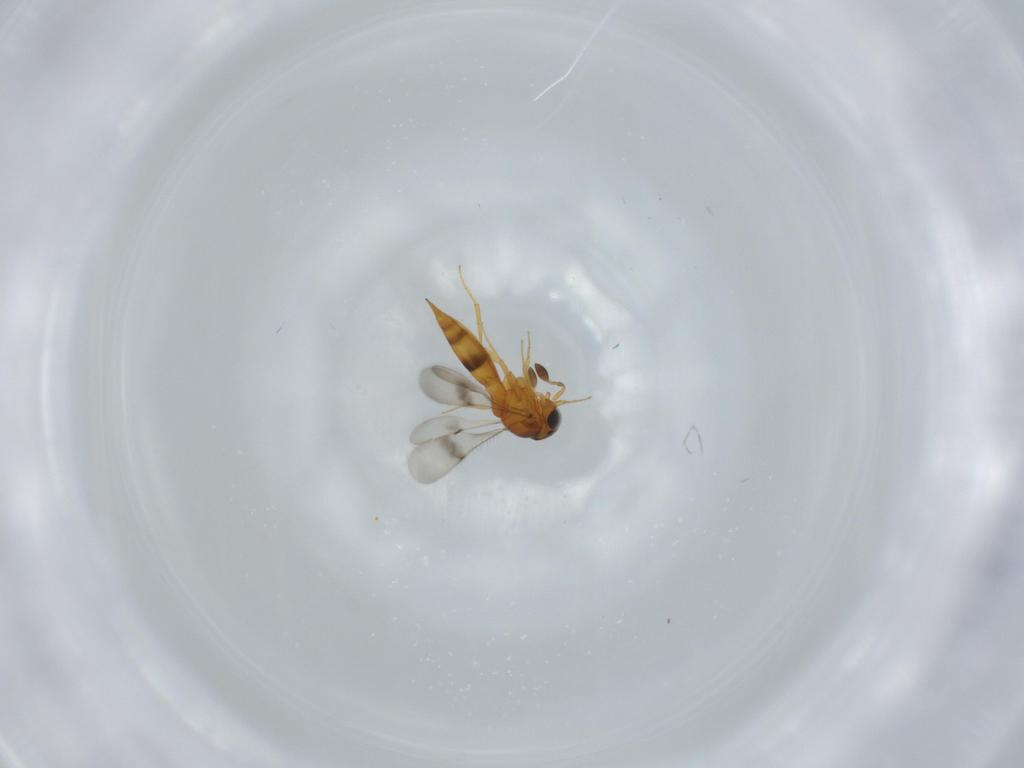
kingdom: Animalia
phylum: Arthropoda
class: Insecta
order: Hymenoptera
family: Scelionidae
